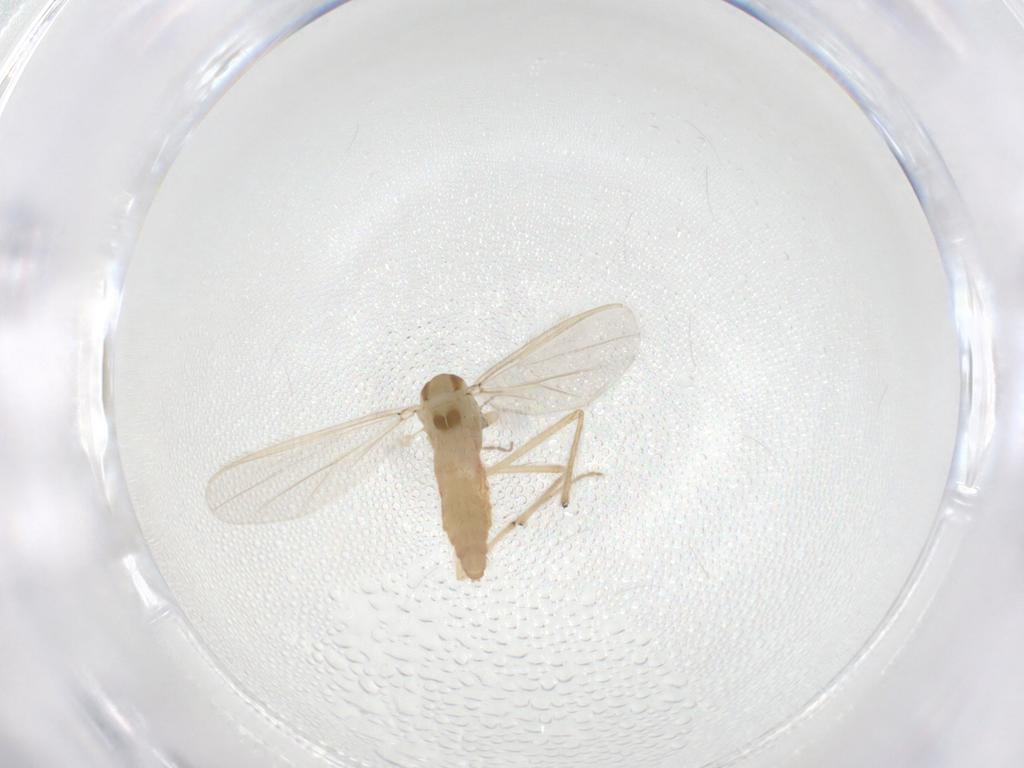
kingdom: Animalia
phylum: Arthropoda
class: Insecta
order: Diptera
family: Chironomidae
